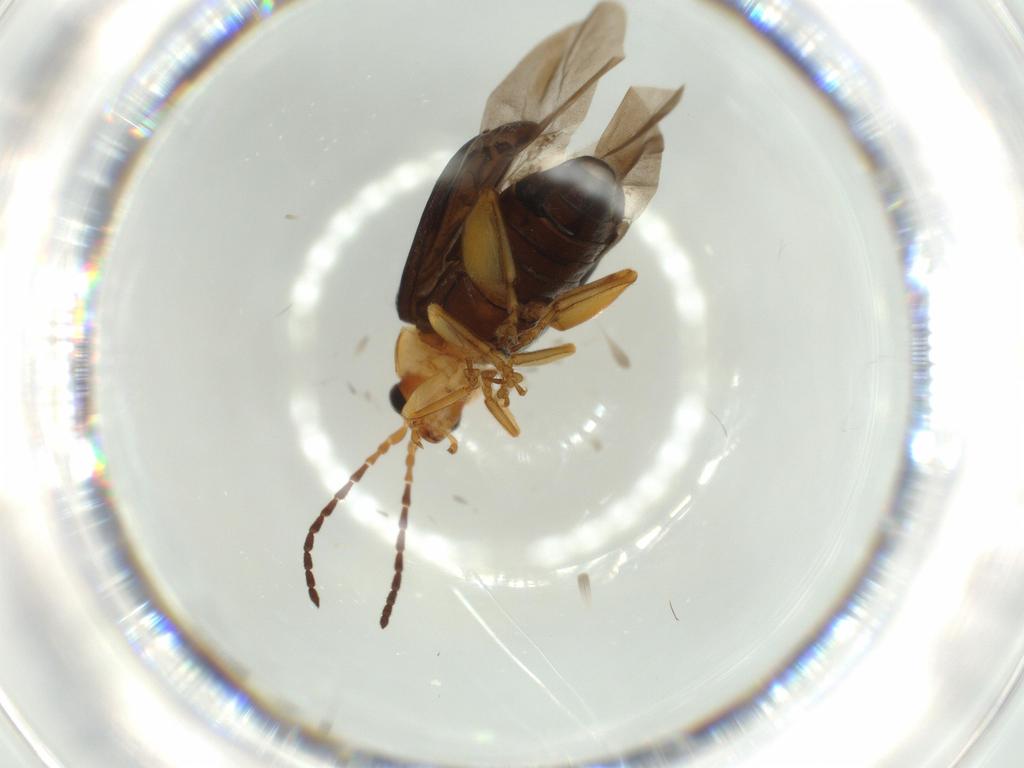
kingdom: Animalia
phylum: Arthropoda
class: Insecta
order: Coleoptera
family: Chrysomelidae
